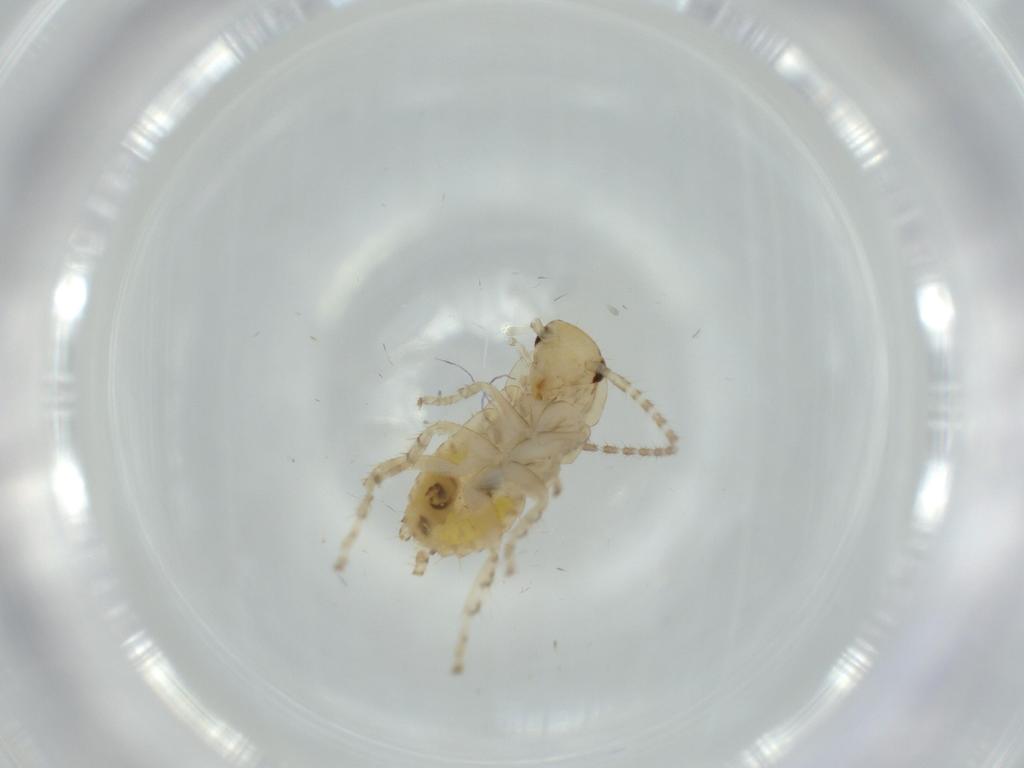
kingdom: Animalia
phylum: Arthropoda
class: Insecta
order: Blattodea
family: Ectobiidae
